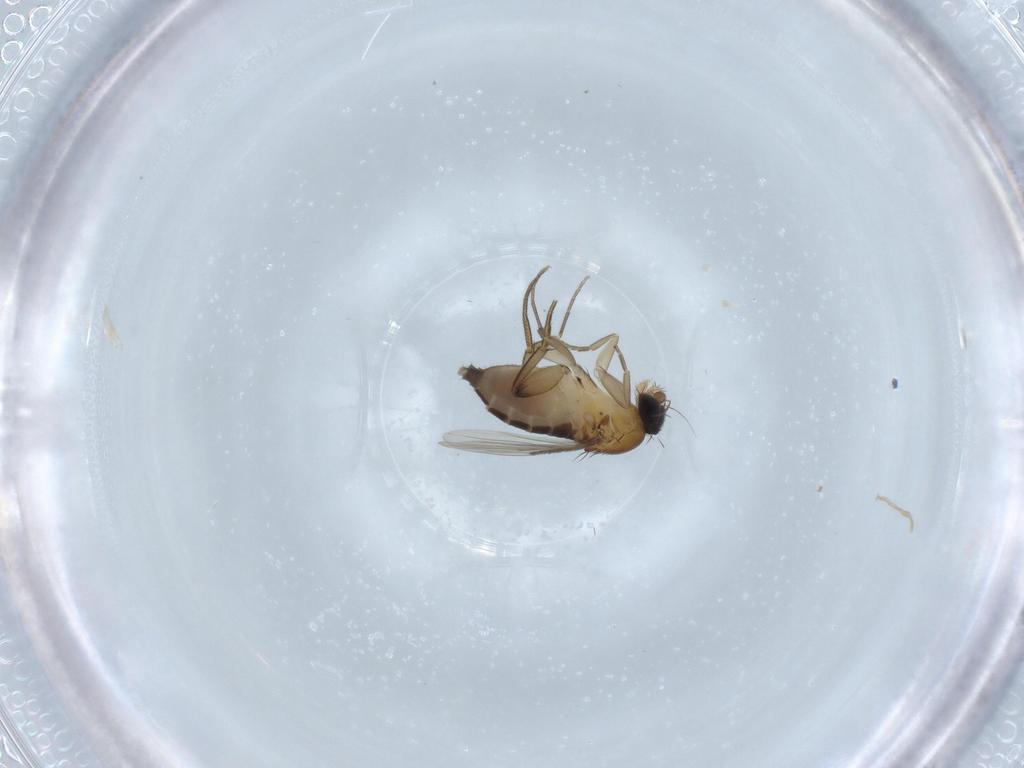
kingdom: Animalia
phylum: Arthropoda
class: Insecta
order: Diptera
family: Phoridae
